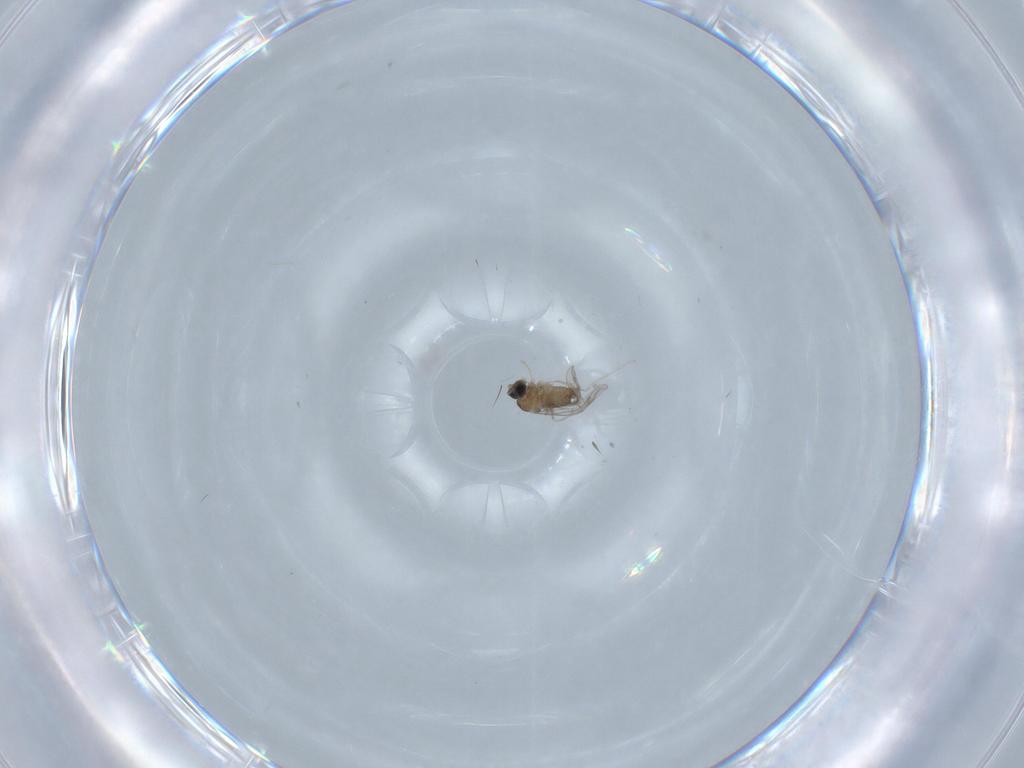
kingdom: Animalia
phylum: Arthropoda
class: Insecta
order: Diptera
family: Cecidomyiidae
